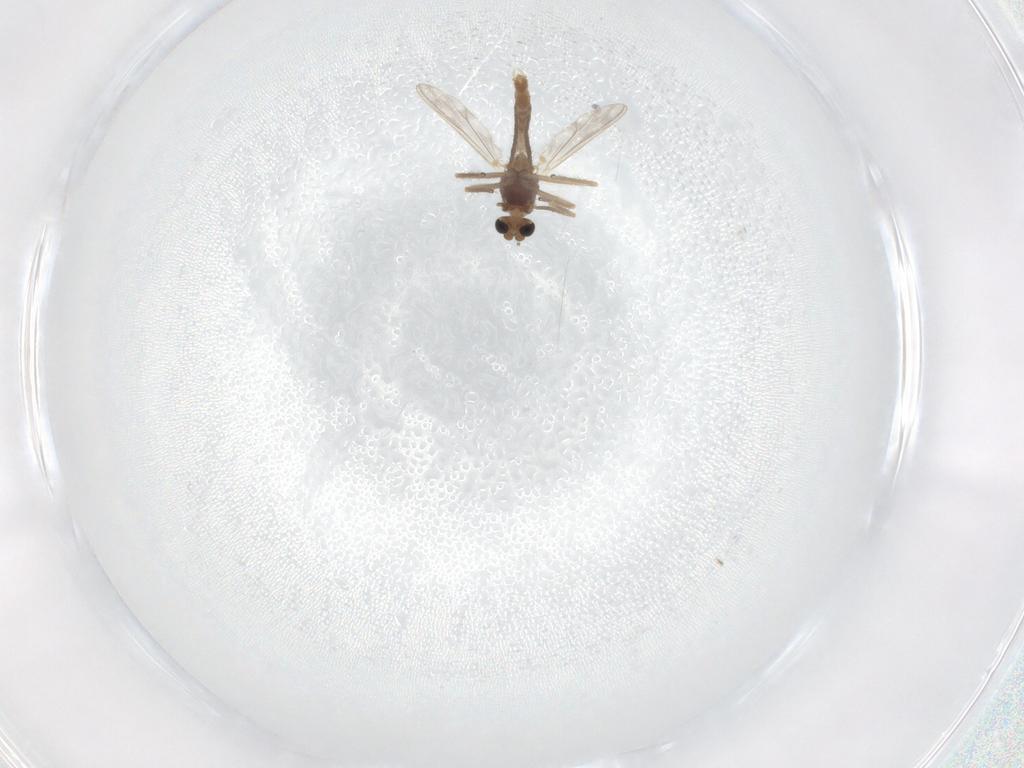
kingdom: Animalia
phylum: Arthropoda
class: Insecta
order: Diptera
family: Chironomidae
